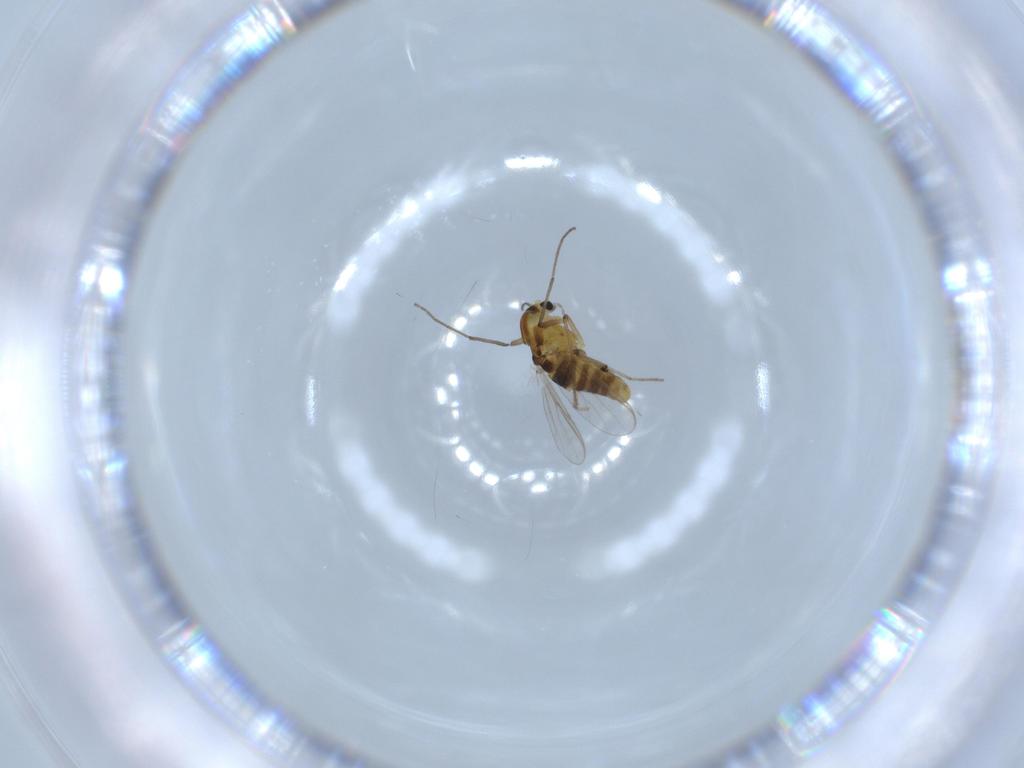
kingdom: Animalia
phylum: Arthropoda
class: Insecta
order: Diptera
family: Chironomidae
